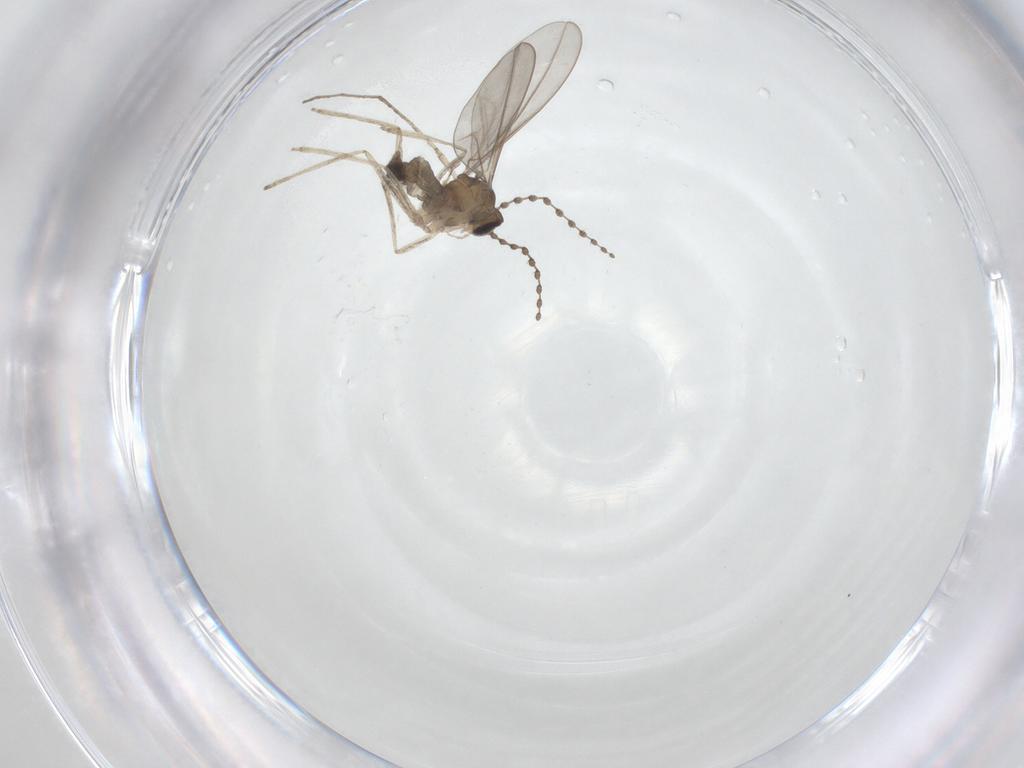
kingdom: Animalia
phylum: Arthropoda
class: Insecta
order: Diptera
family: Cecidomyiidae
